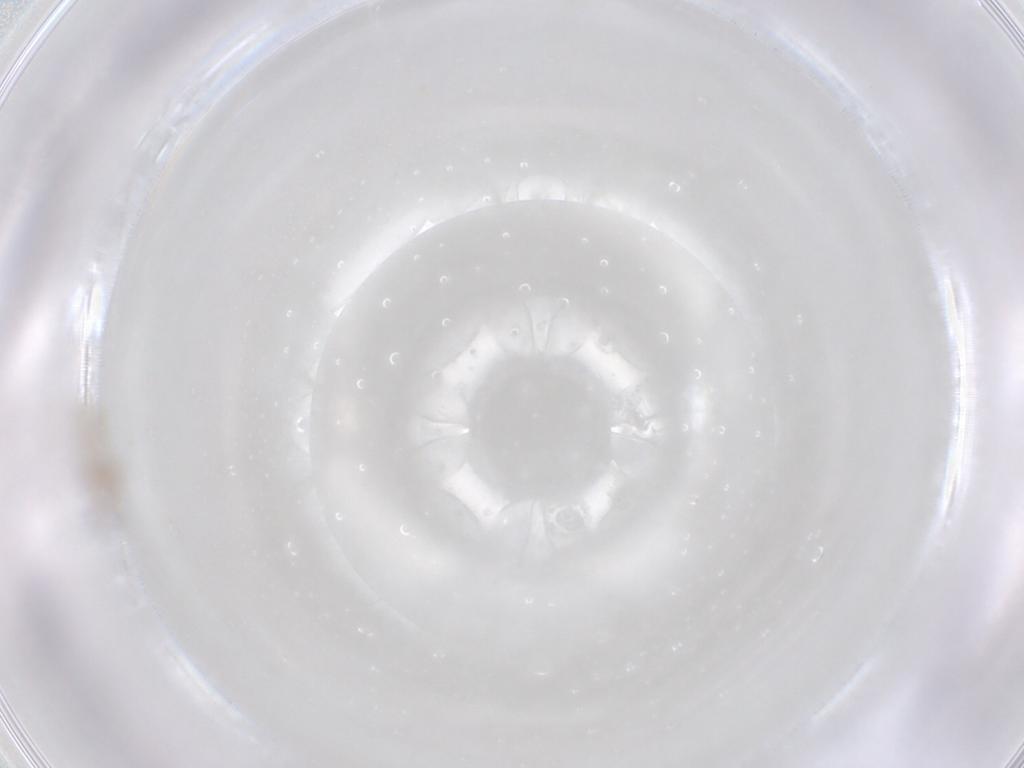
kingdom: Animalia
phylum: Arthropoda
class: Insecta
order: Diptera
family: Cecidomyiidae
